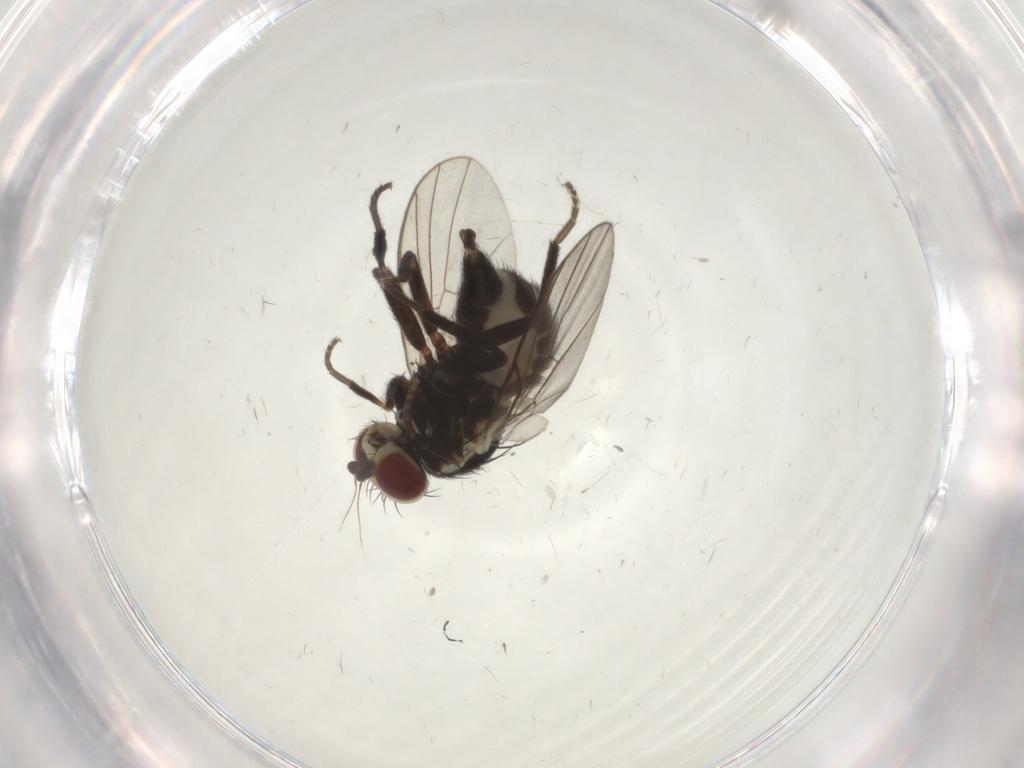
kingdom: Animalia
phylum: Arthropoda
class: Insecta
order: Diptera
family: Agromyzidae
